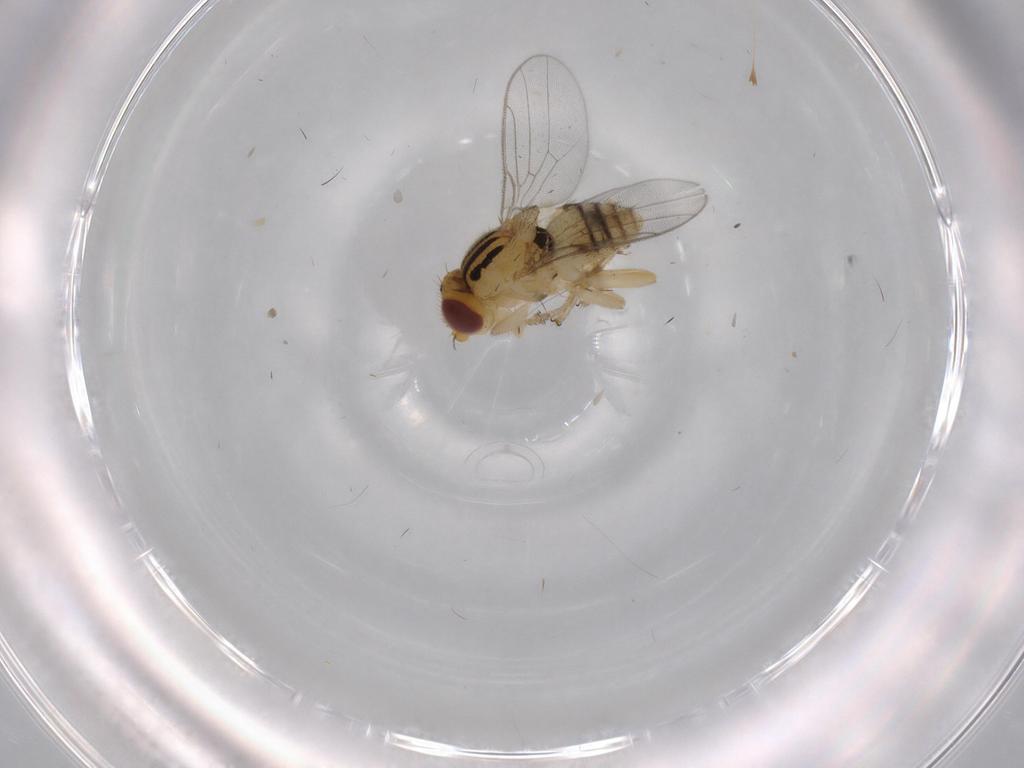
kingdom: Animalia
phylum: Arthropoda
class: Insecta
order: Diptera
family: Chloropidae
